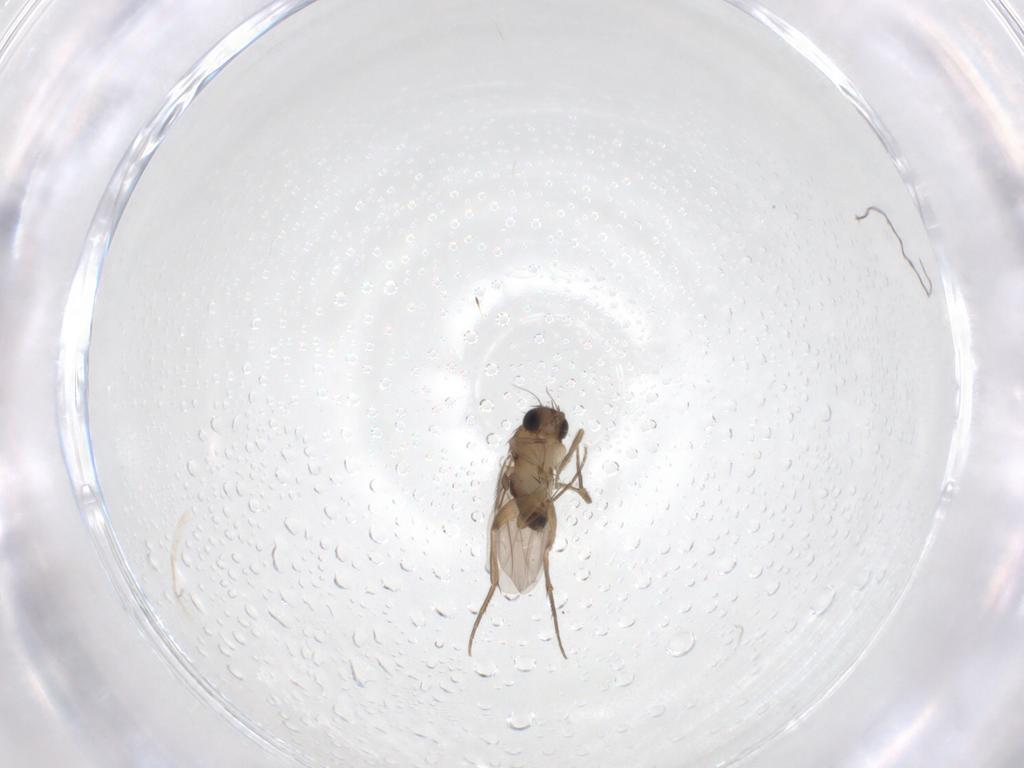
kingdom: Animalia
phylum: Arthropoda
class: Insecta
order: Diptera
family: Phoridae
